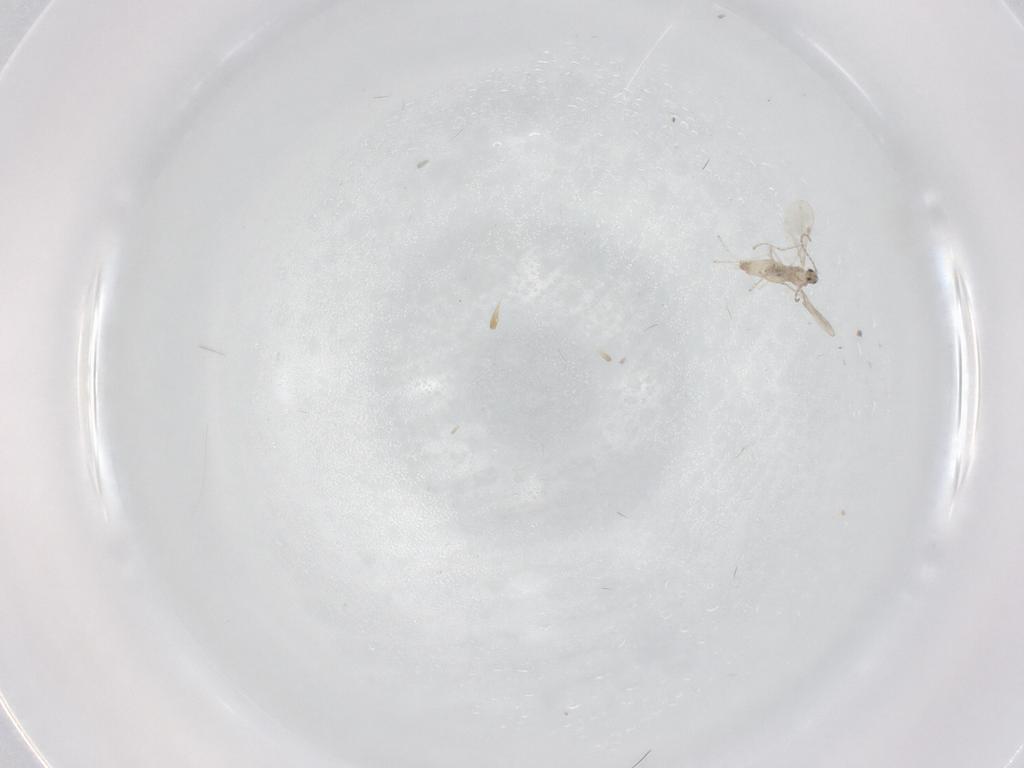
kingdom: Animalia
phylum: Arthropoda
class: Insecta
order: Diptera
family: Cecidomyiidae
